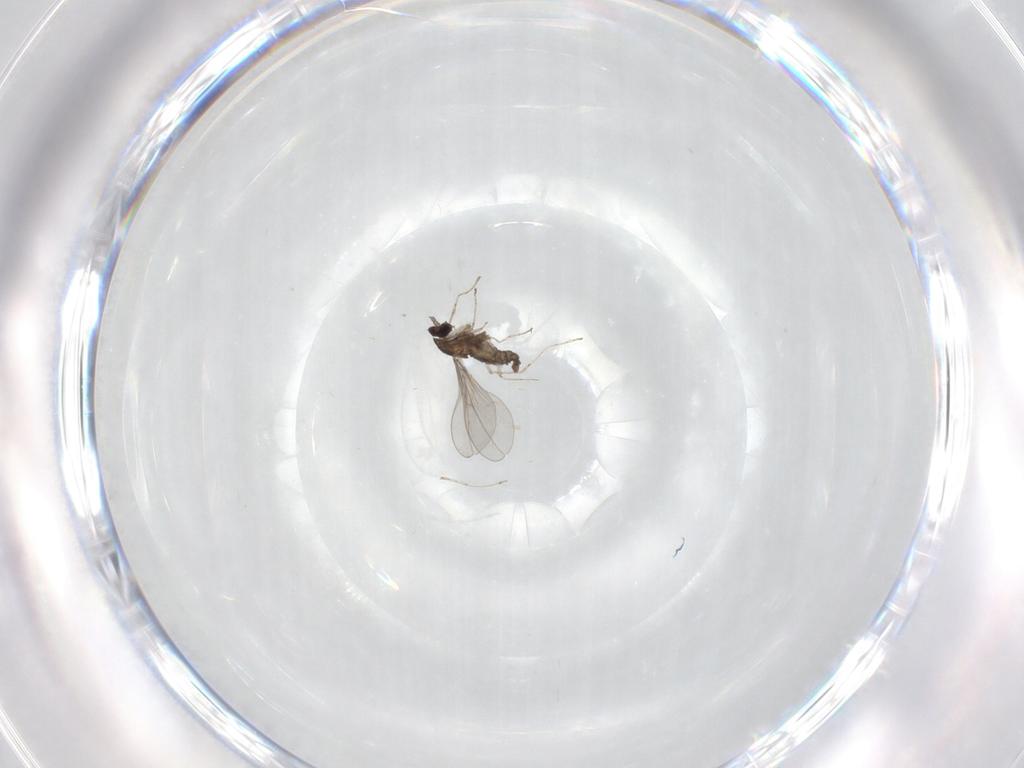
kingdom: Animalia
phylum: Arthropoda
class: Insecta
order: Diptera
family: Cecidomyiidae
